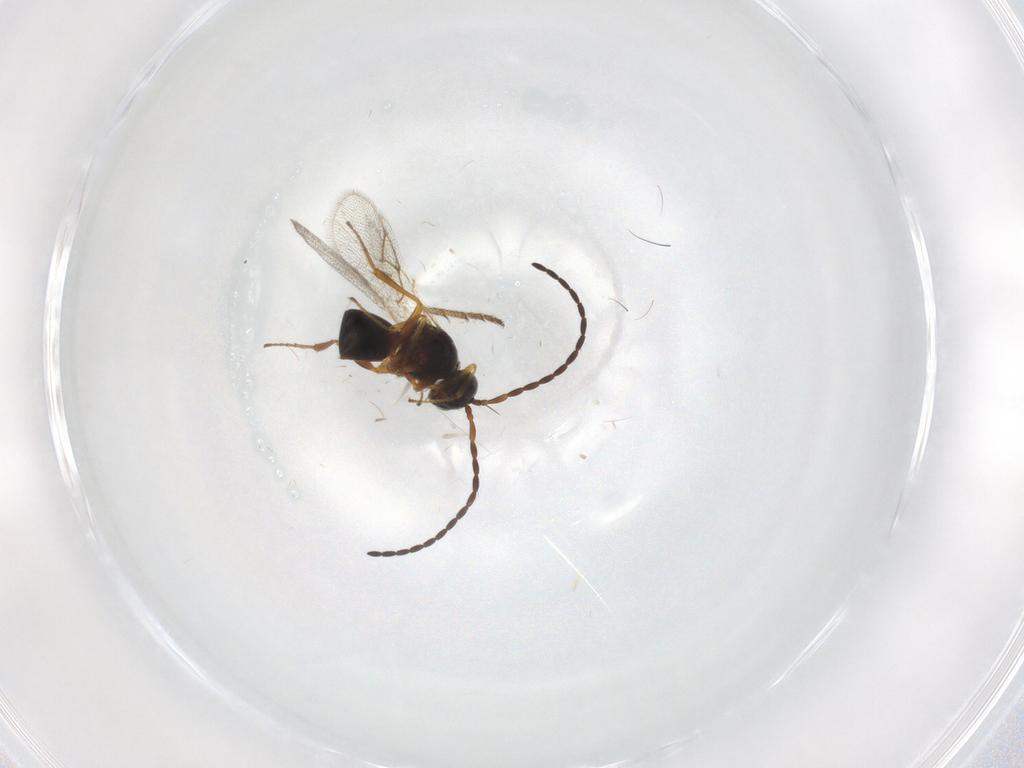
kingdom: Animalia
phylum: Arthropoda
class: Insecta
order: Hymenoptera
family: Figitidae
